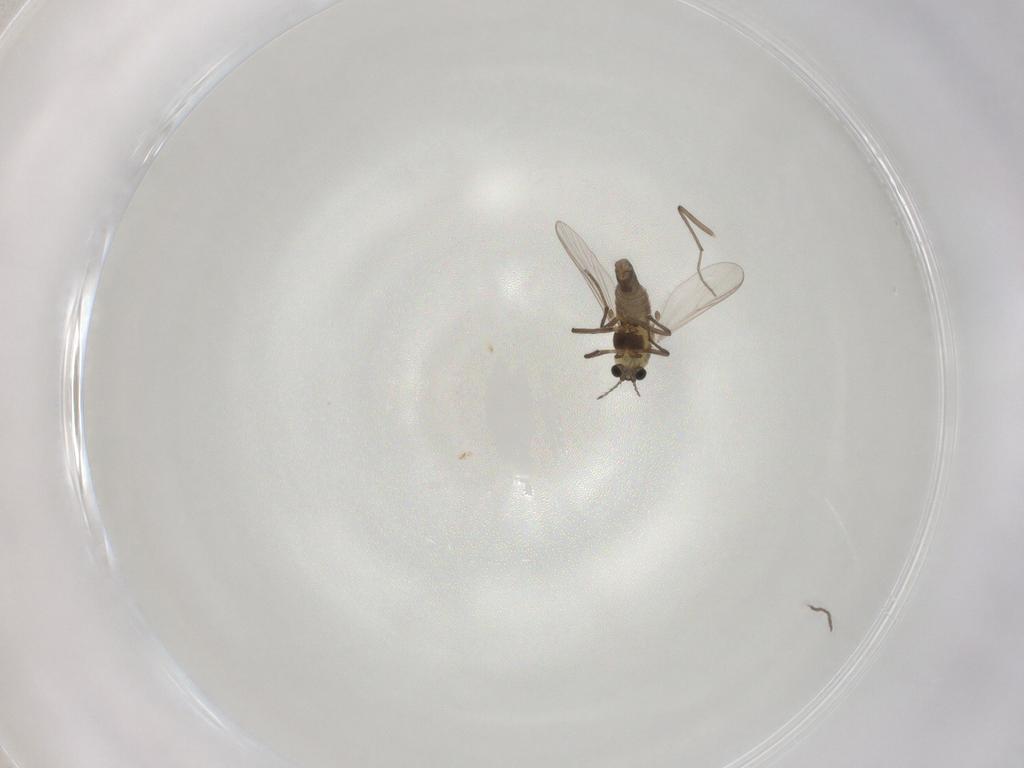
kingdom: Animalia
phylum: Arthropoda
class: Insecta
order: Diptera
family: Chironomidae
